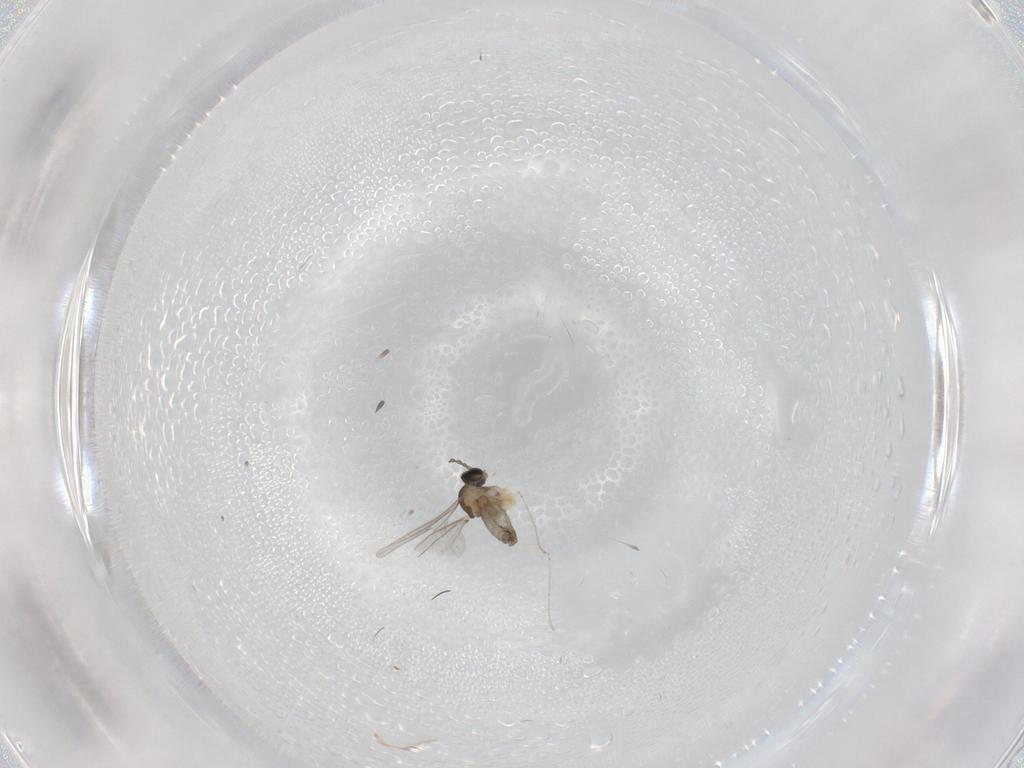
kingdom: Animalia
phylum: Arthropoda
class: Insecta
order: Diptera
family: Cecidomyiidae
